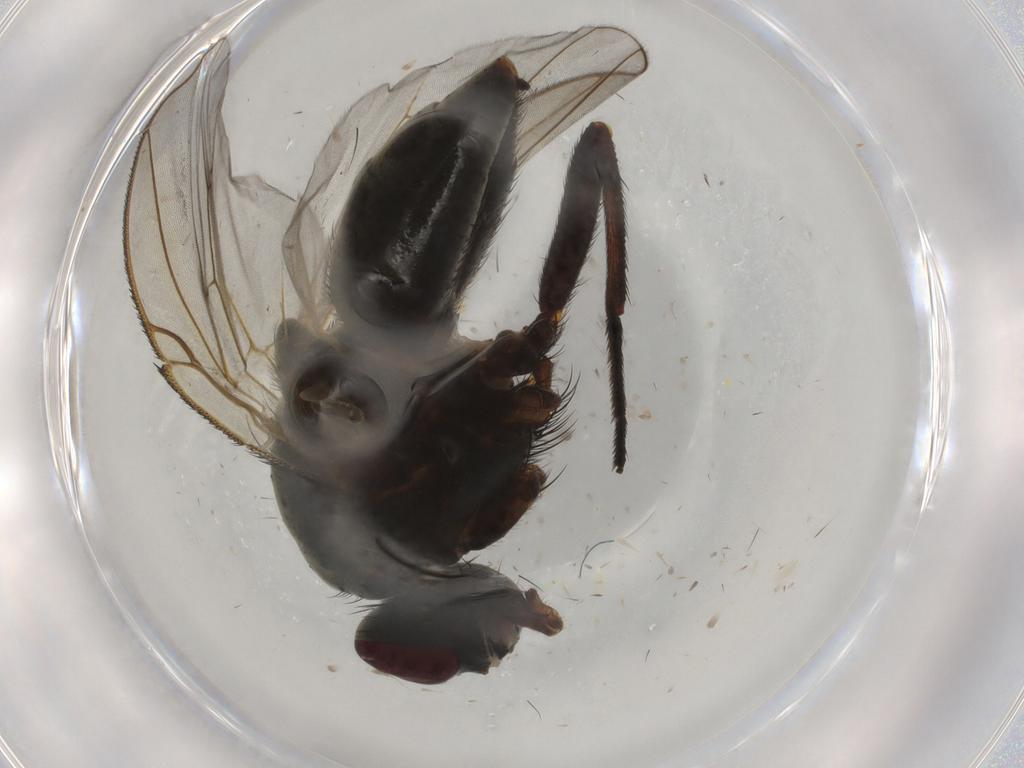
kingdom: Animalia
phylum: Arthropoda
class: Insecta
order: Diptera
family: Muscidae
